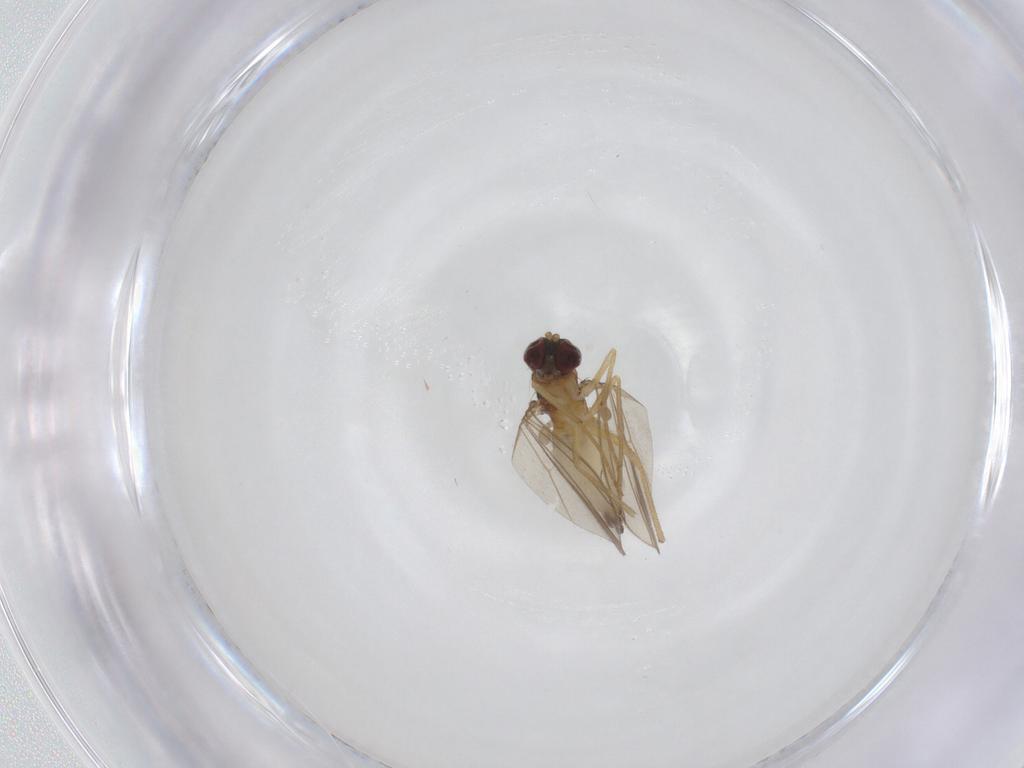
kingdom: Animalia
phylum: Arthropoda
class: Insecta
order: Diptera
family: Dolichopodidae
